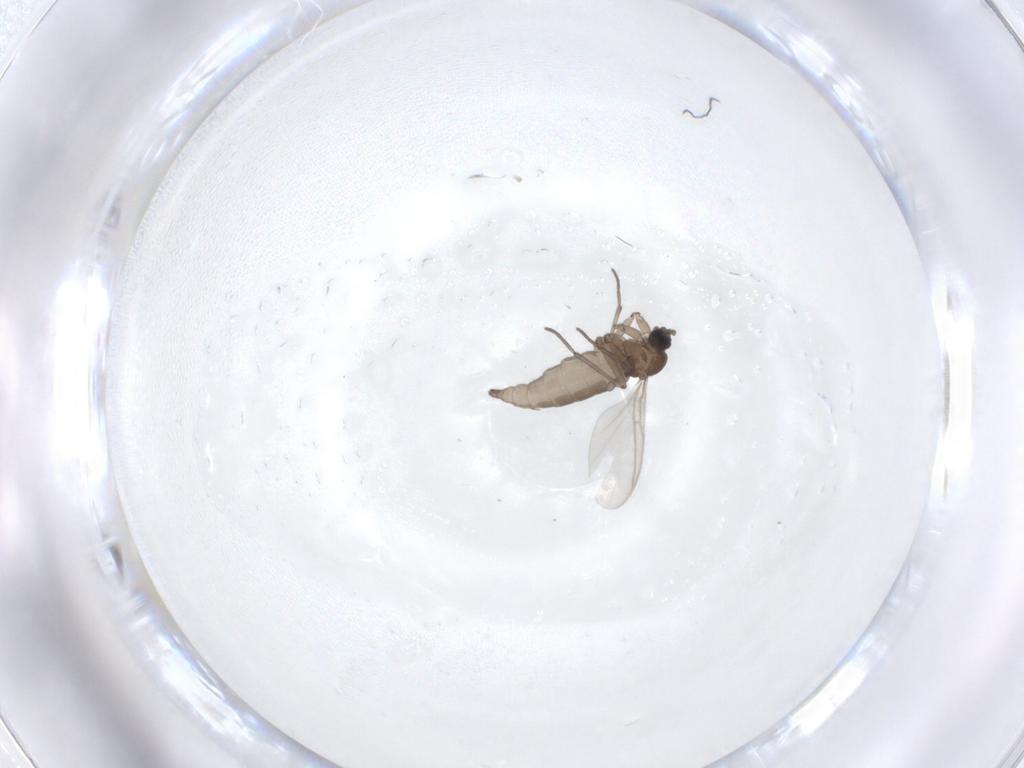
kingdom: Animalia
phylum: Arthropoda
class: Insecta
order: Diptera
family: Sciaridae
